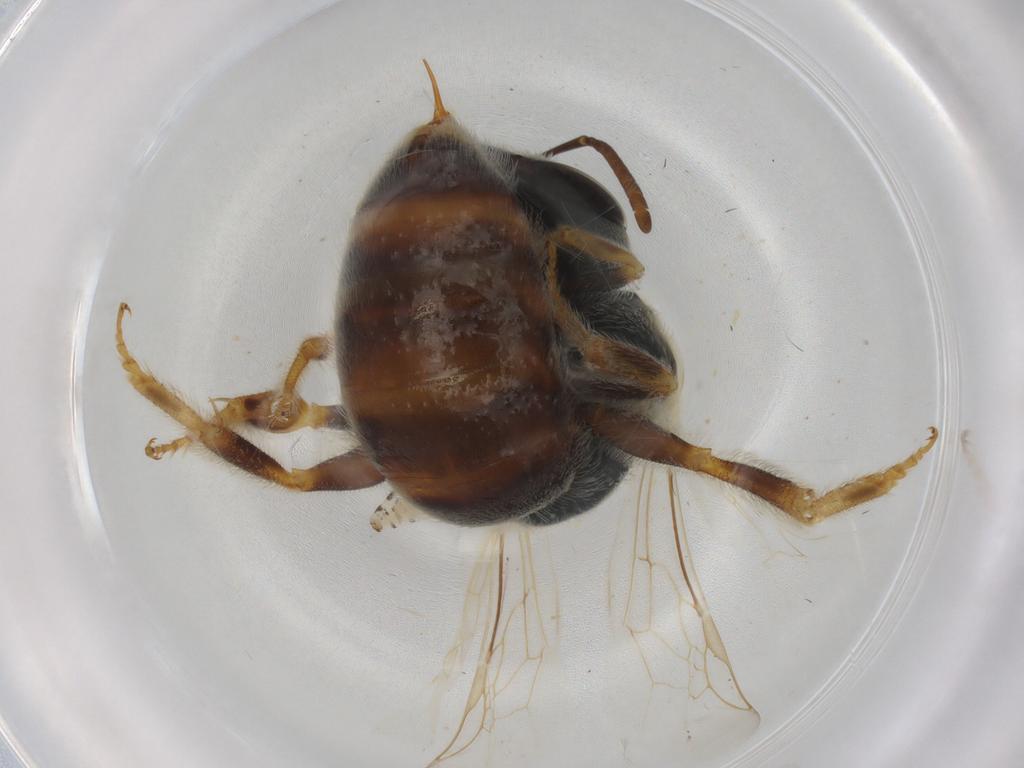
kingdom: Animalia
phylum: Arthropoda
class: Insecta
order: Hymenoptera
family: Halictidae
